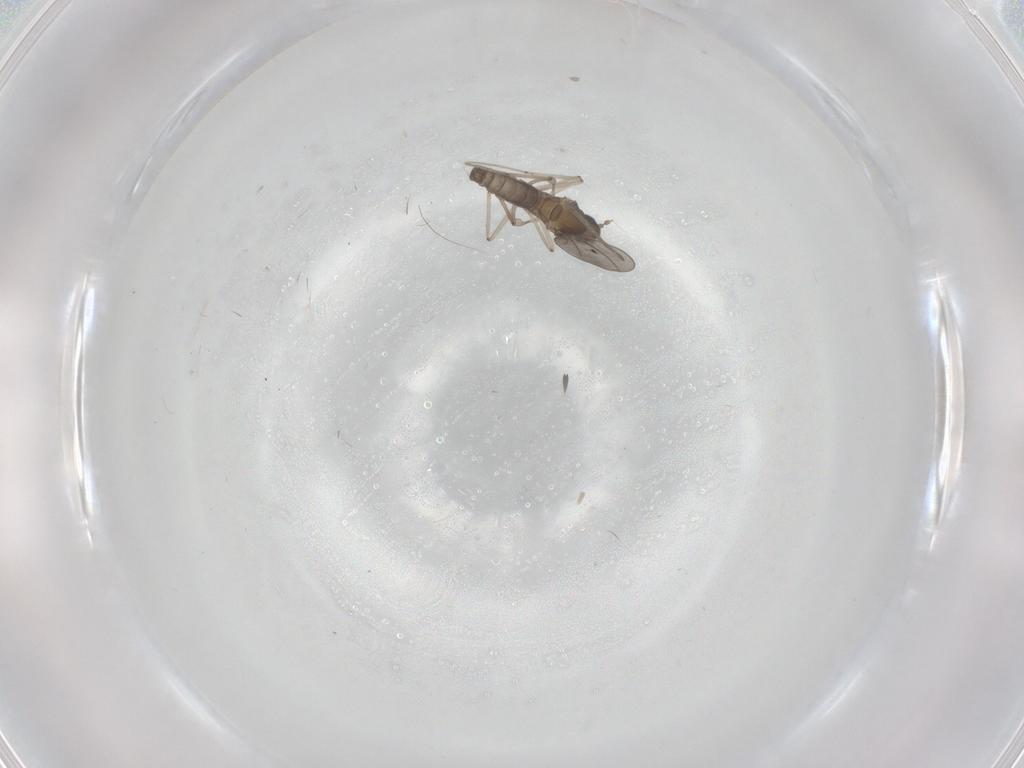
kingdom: Animalia
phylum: Arthropoda
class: Insecta
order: Diptera
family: Cecidomyiidae
